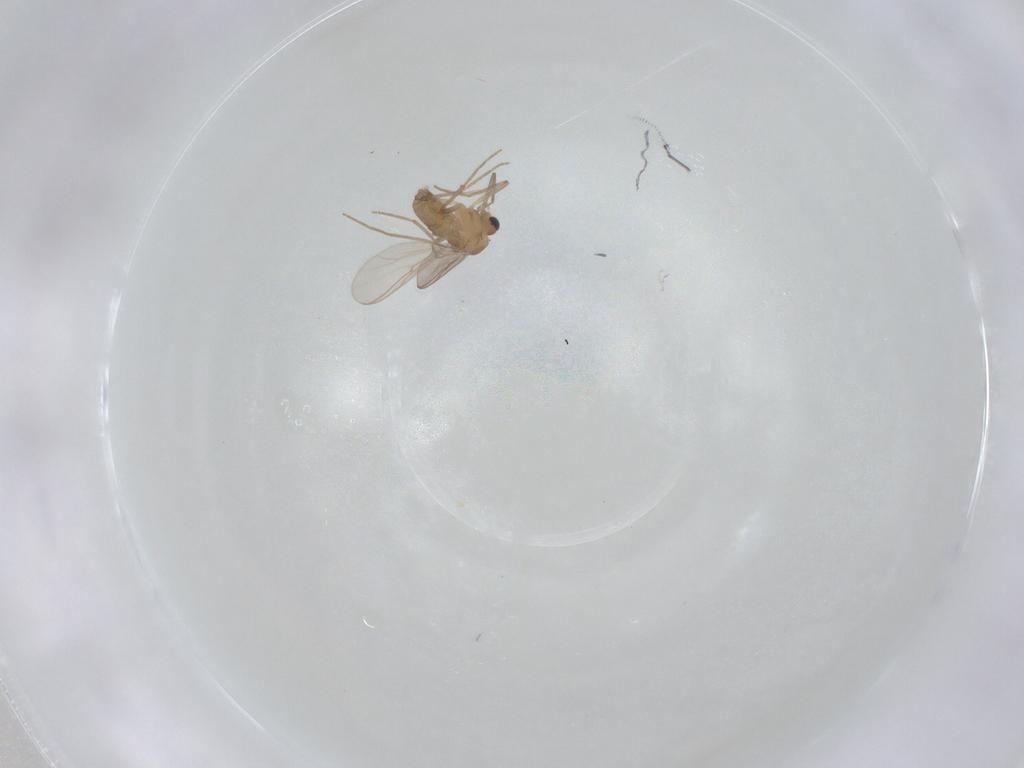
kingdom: Animalia
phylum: Arthropoda
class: Insecta
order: Diptera
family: Chironomidae
